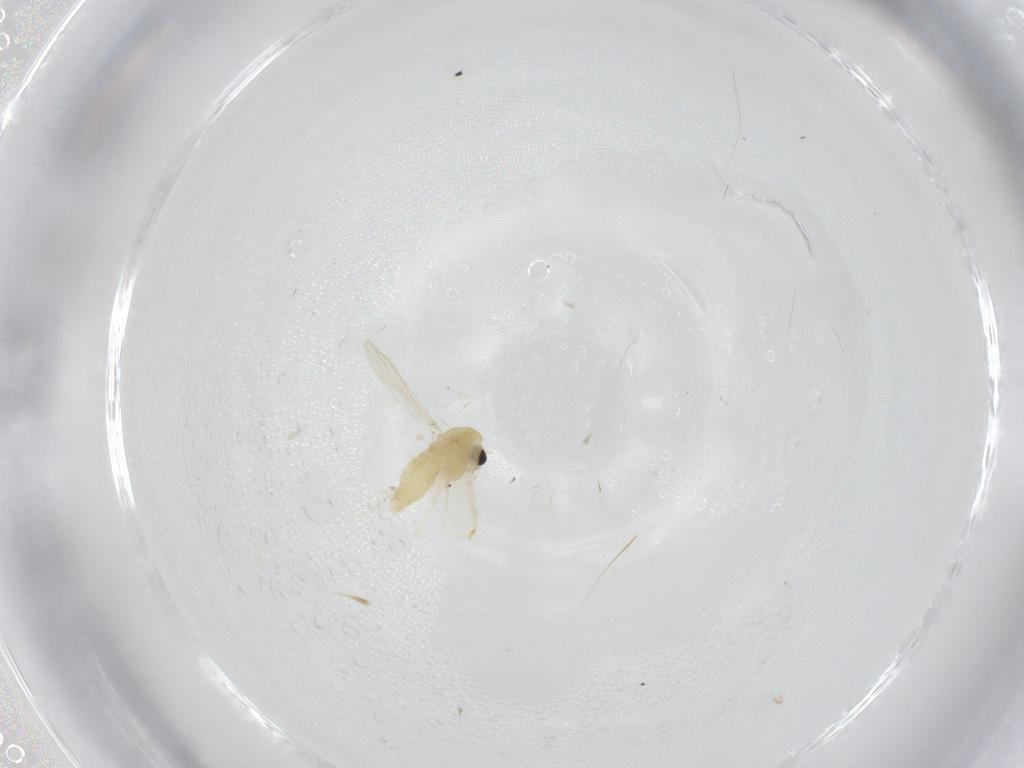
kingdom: Animalia
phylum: Arthropoda
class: Insecta
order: Diptera
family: Chironomidae
